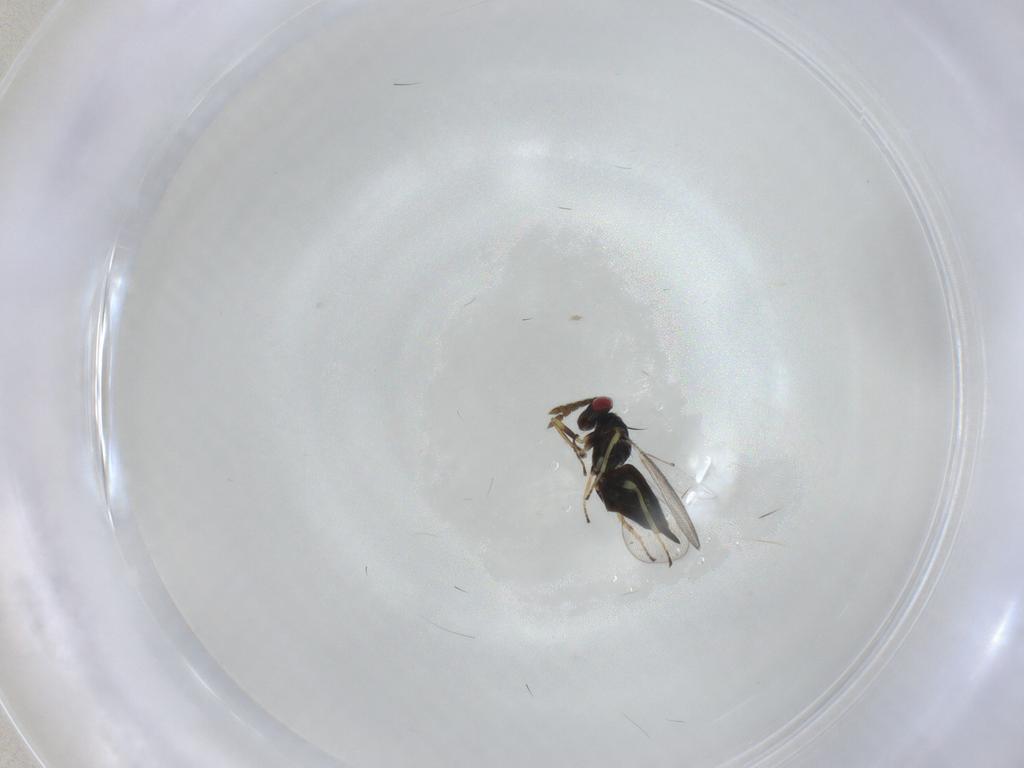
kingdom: Animalia
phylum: Arthropoda
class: Insecta
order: Hymenoptera
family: Eulophidae
